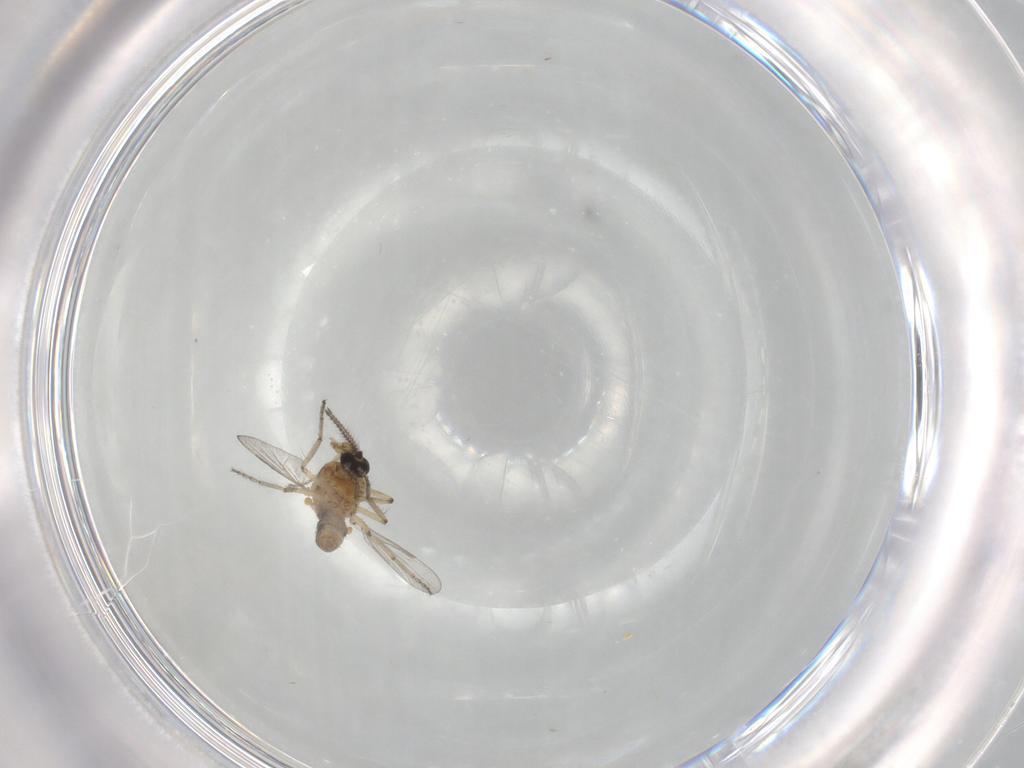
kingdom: Animalia
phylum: Arthropoda
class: Insecta
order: Diptera
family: Ceratopogonidae
